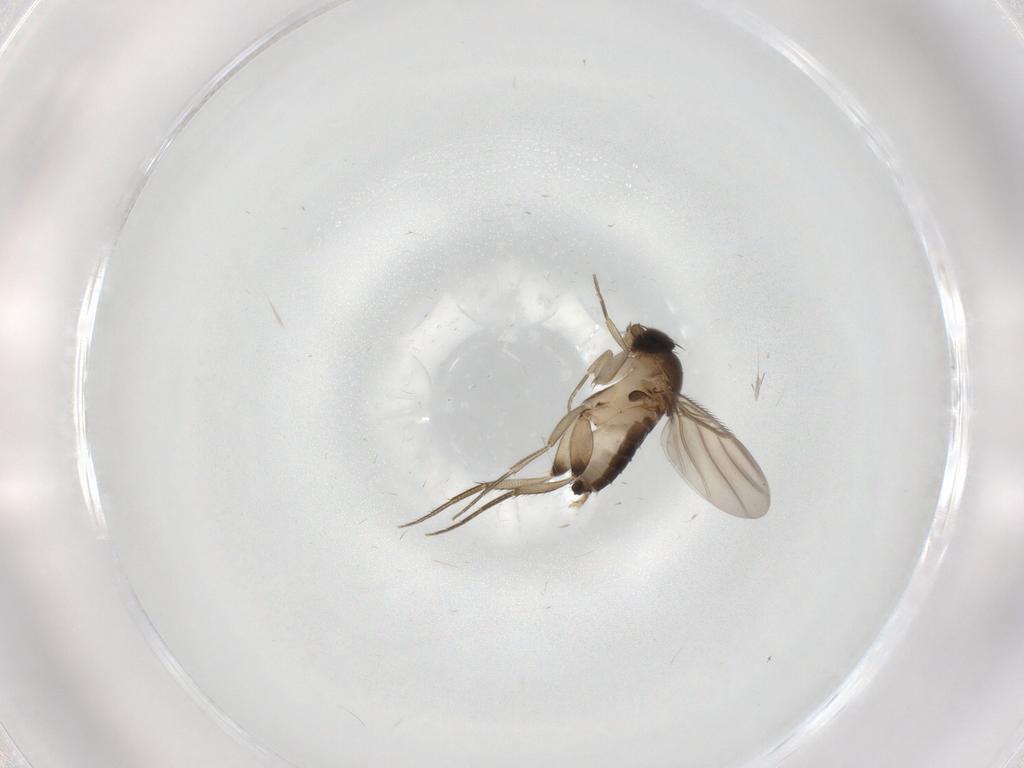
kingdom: Animalia
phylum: Arthropoda
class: Insecta
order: Diptera
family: Phoridae
